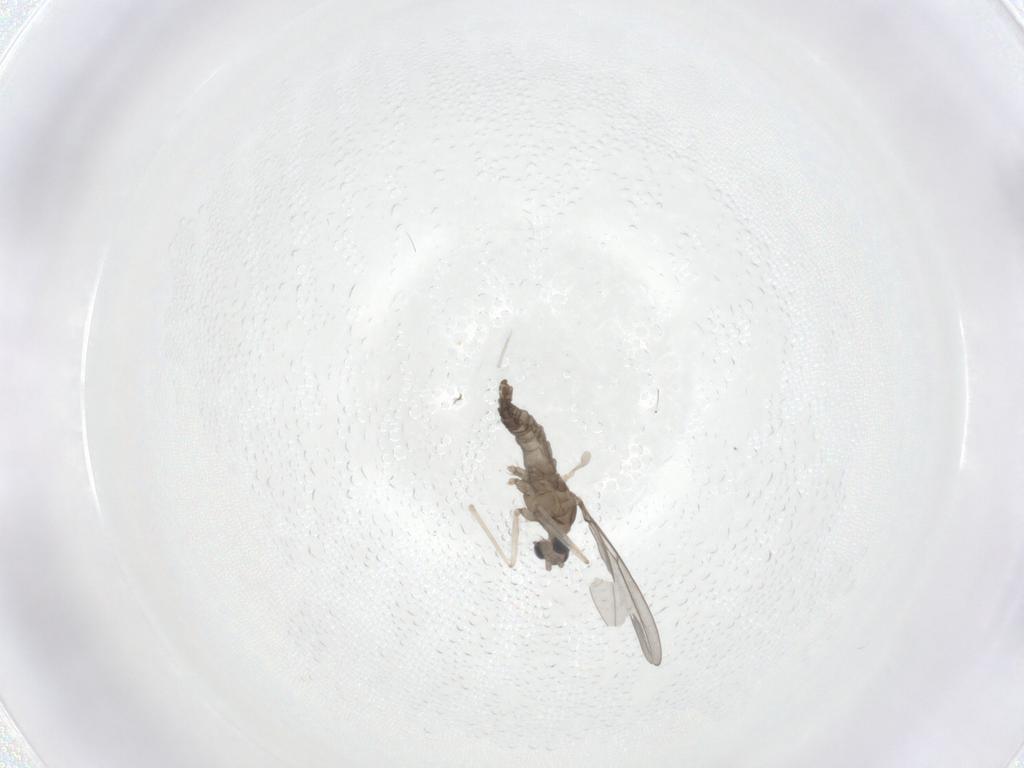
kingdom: Animalia
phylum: Arthropoda
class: Insecta
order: Diptera
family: Cecidomyiidae
